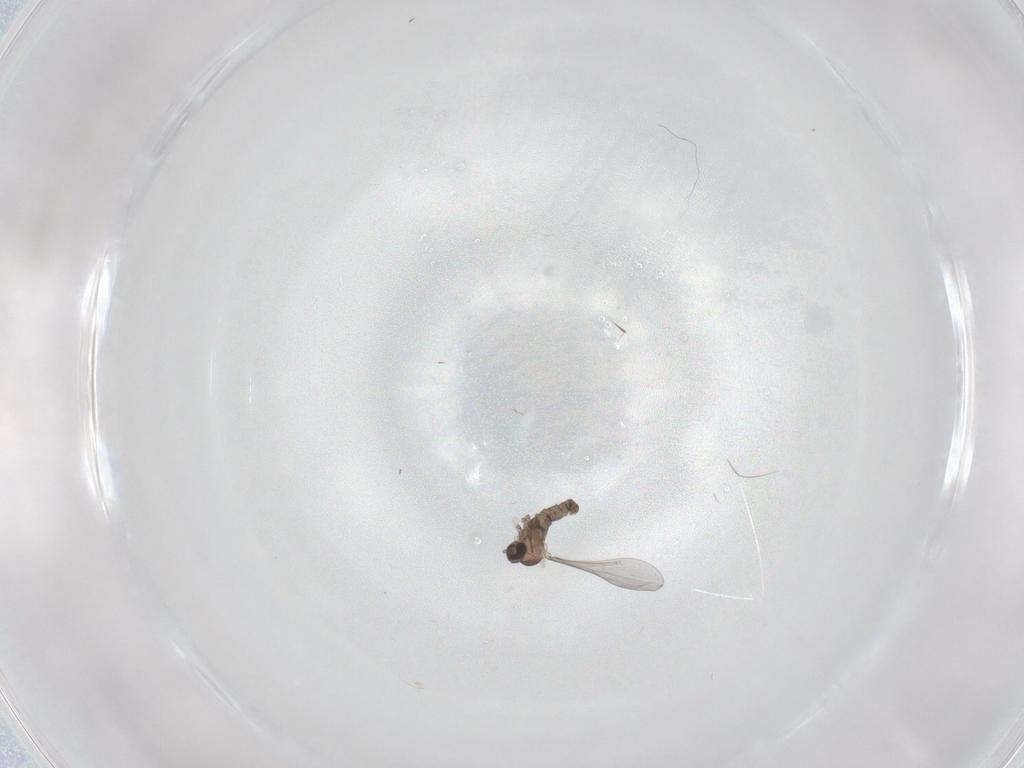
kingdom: Animalia
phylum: Arthropoda
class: Insecta
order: Diptera
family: Cecidomyiidae
